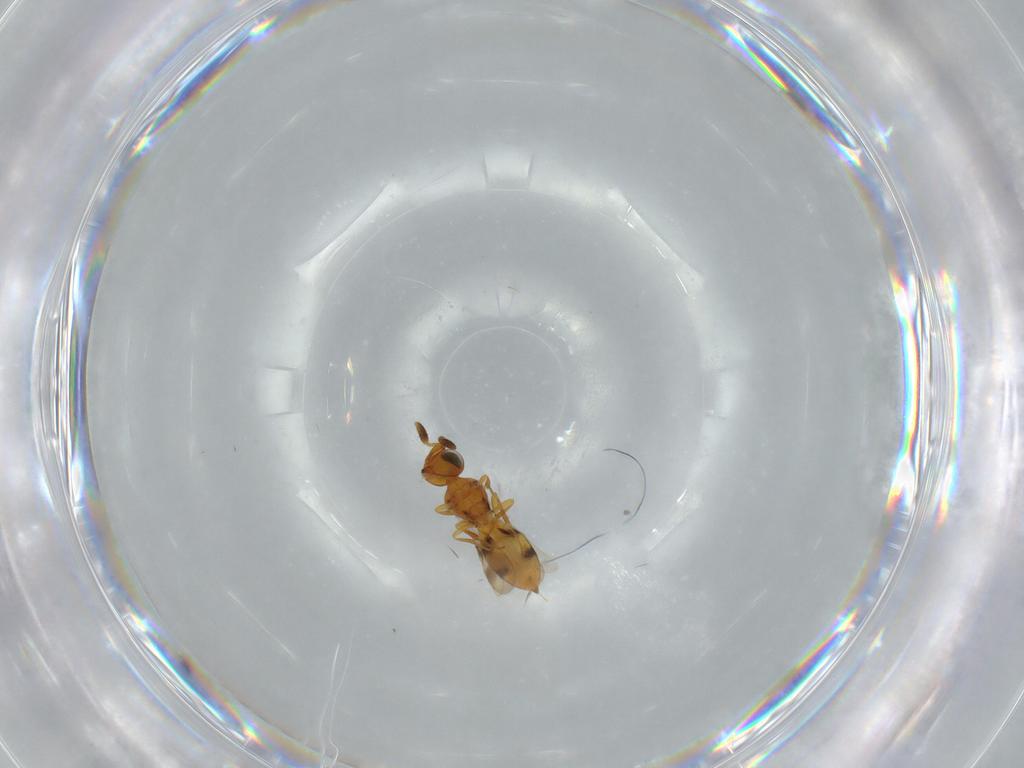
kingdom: Animalia
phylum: Arthropoda
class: Insecta
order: Hymenoptera
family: Scelionidae
